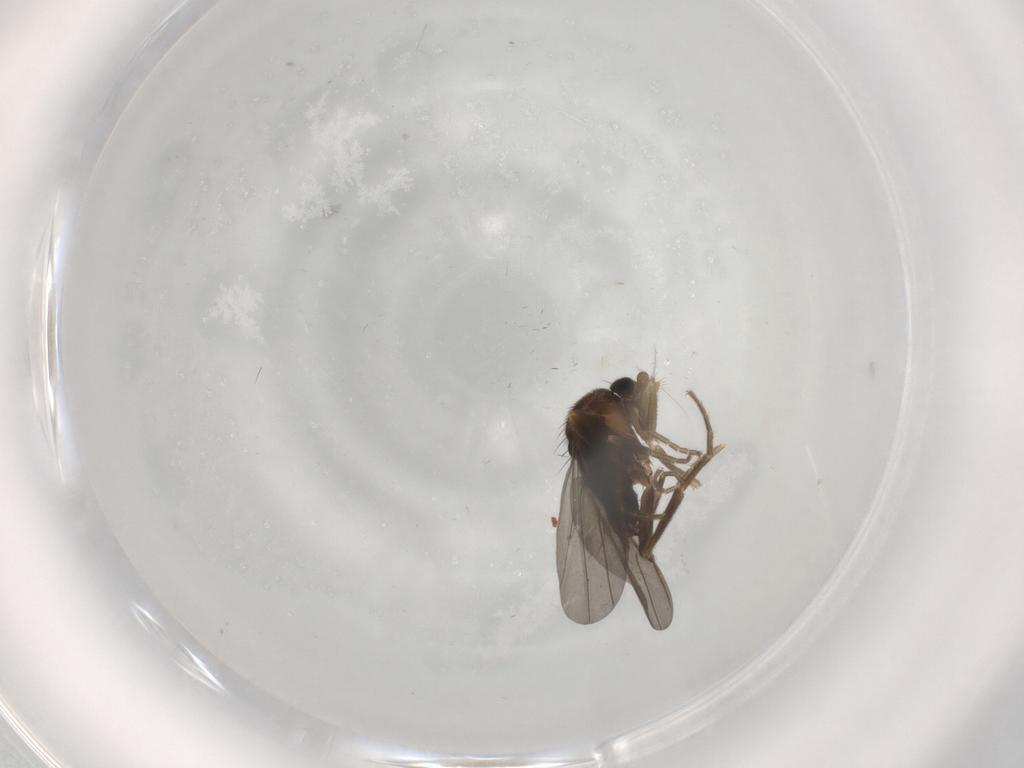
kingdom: Animalia
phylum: Arthropoda
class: Insecta
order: Diptera
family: Phoridae
